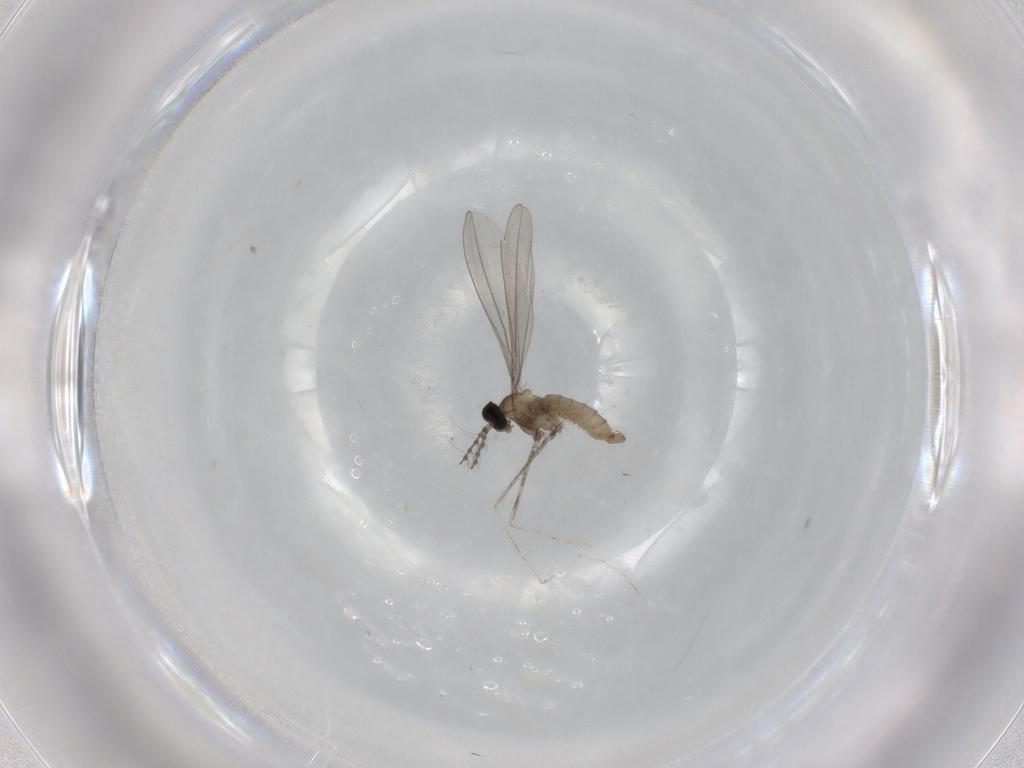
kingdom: Animalia
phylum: Arthropoda
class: Insecta
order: Diptera
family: Cecidomyiidae
